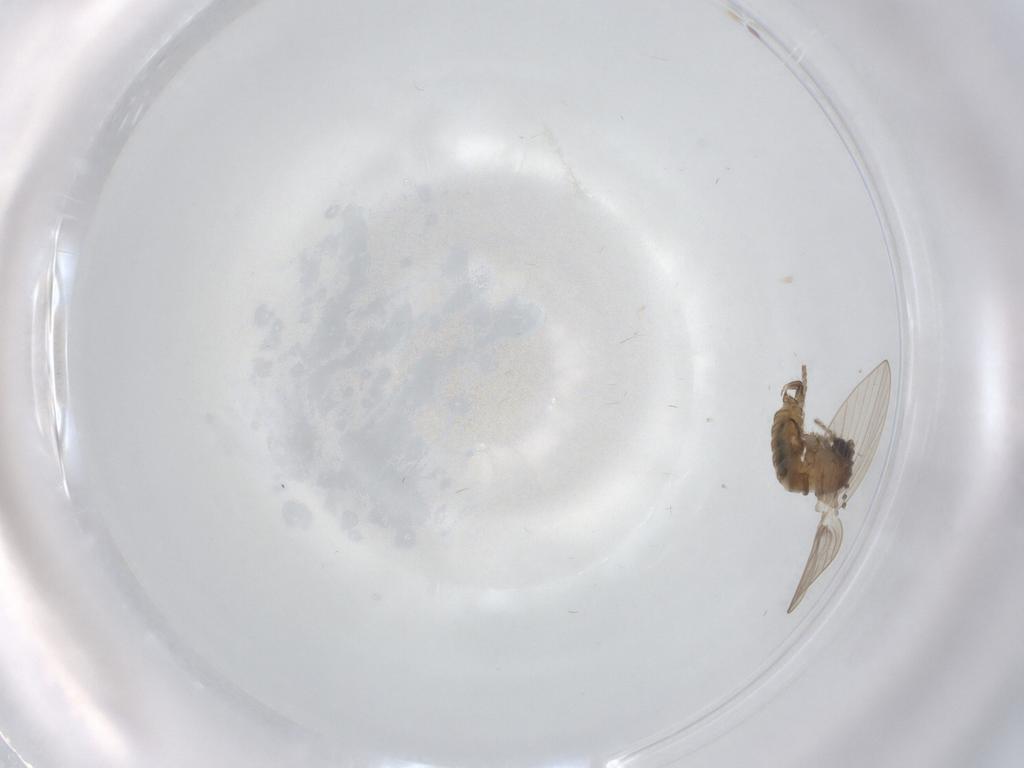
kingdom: Animalia
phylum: Arthropoda
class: Insecta
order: Diptera
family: Psychodidae
